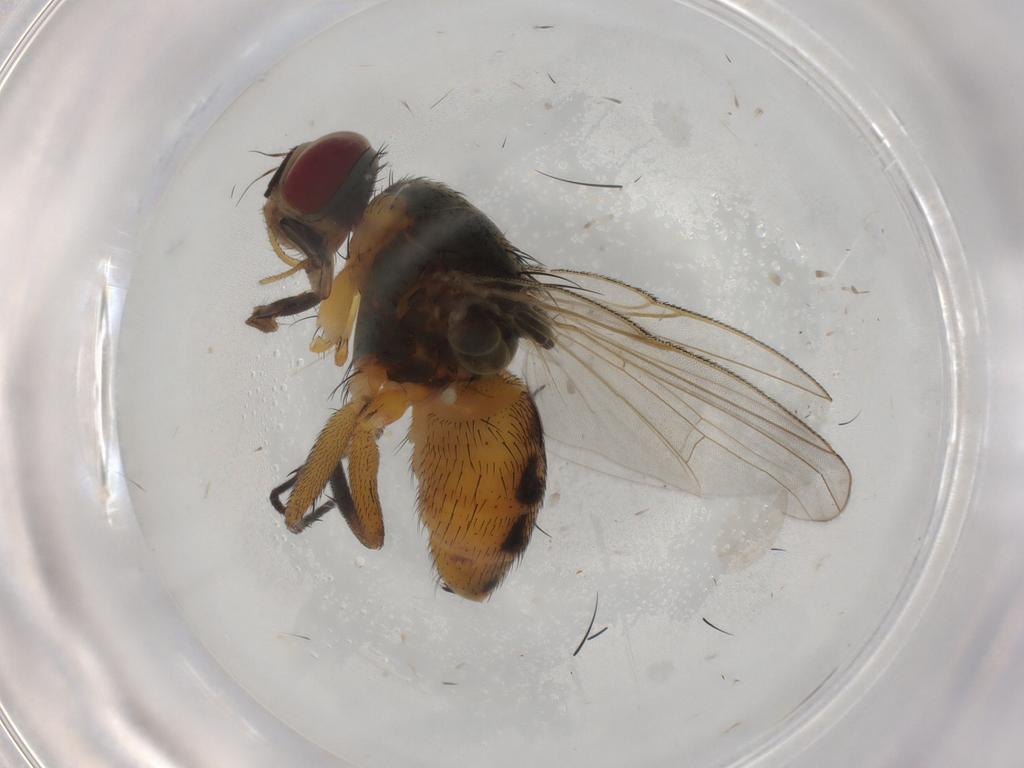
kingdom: Animalia
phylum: Arthropoda
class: Insecta
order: Diptera
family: Muscidae
